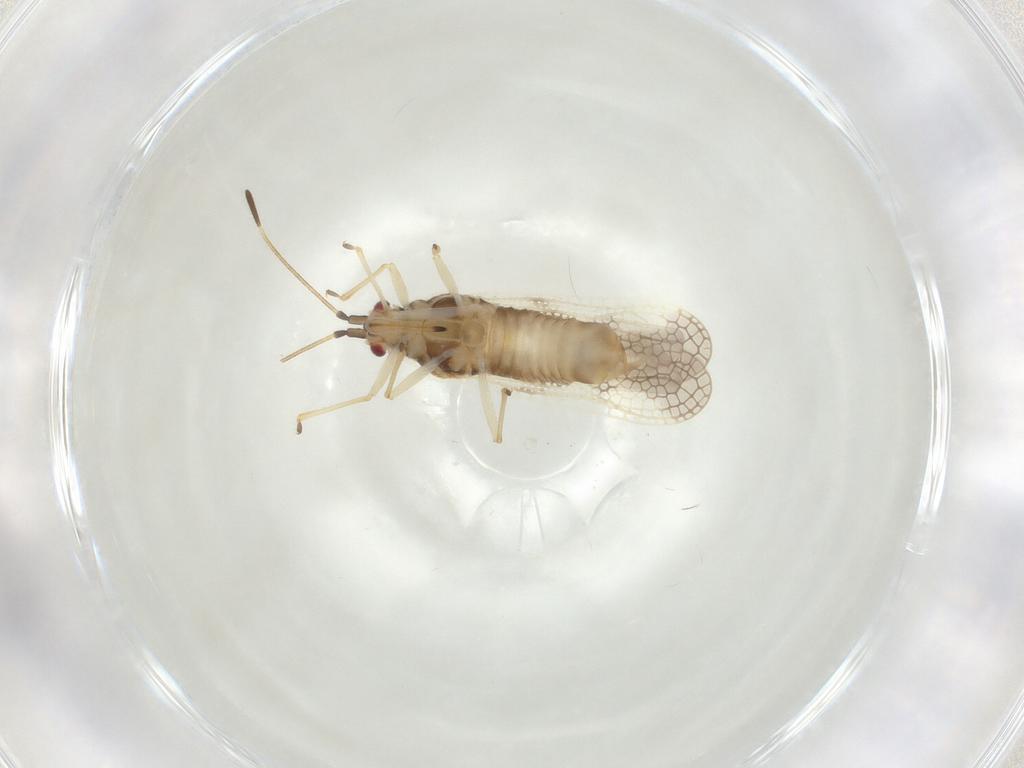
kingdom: Animalia
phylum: Arthropoda
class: Insecta
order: Hemiptera
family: Tingidae
